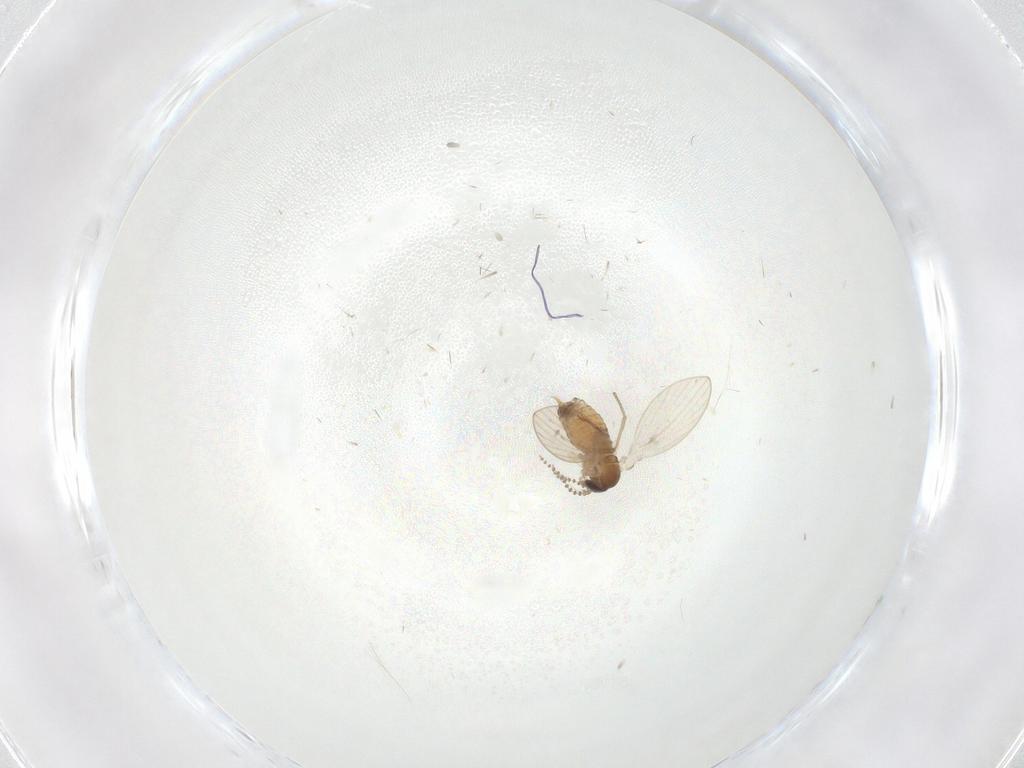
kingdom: Animalia
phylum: Arthropoda
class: Insecta
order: Diptera
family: Psychodidae
